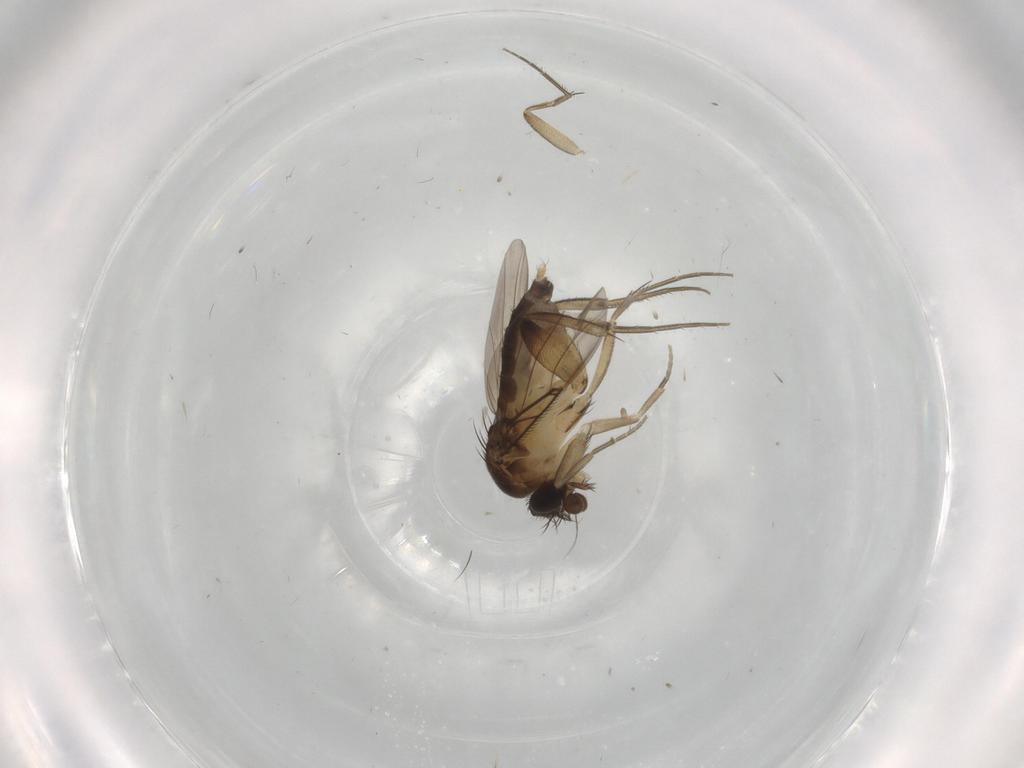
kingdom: Animalia
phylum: Arthropoda
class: Insecta
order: Diptera
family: Phoridae
